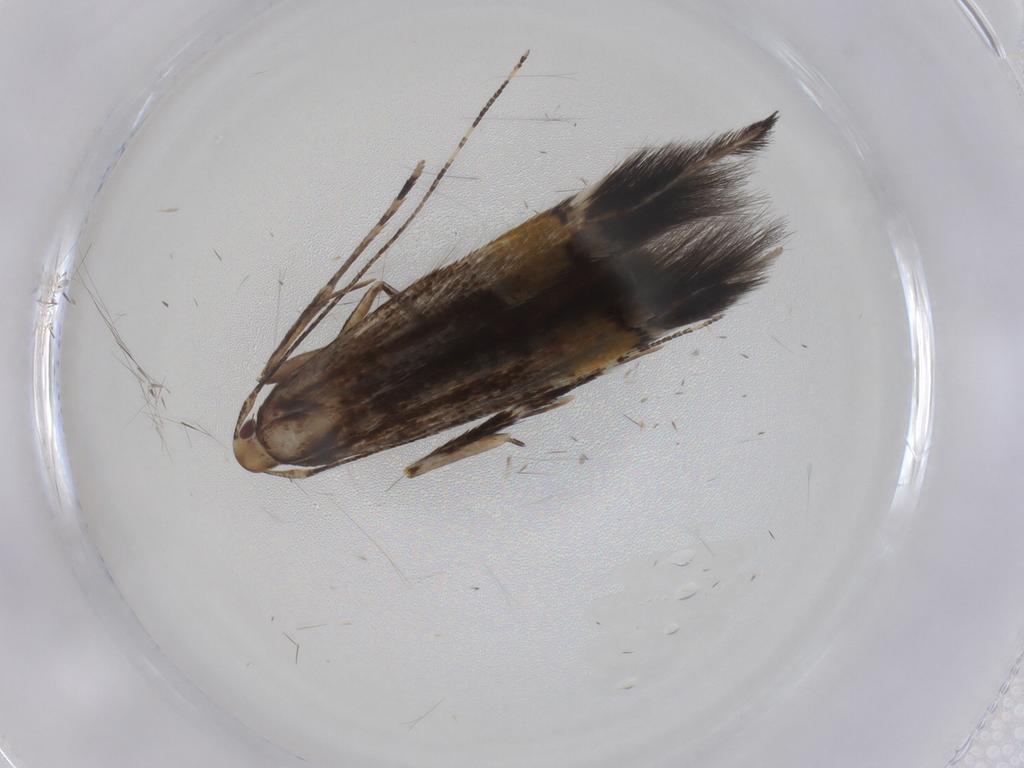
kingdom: Animalia
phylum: Arthropoda
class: Insecta
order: Lepidoptera
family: Cosmopterigidae
